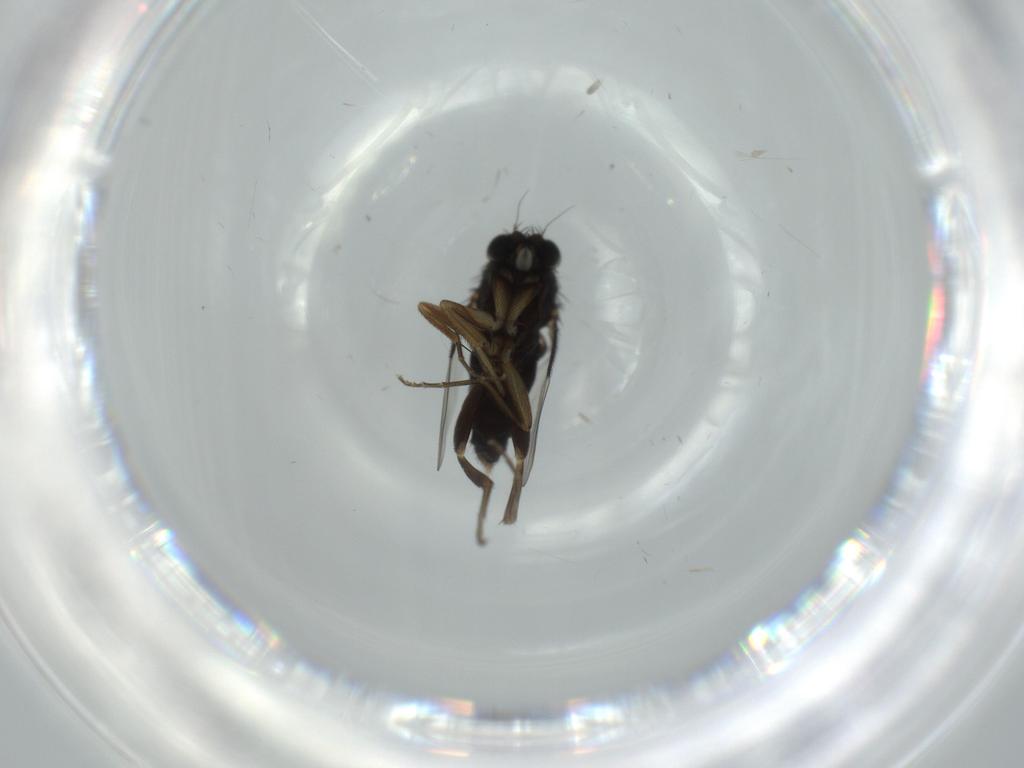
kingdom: Animalia
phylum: Arthropoda
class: Insecta
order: Diptera
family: Phoridae
